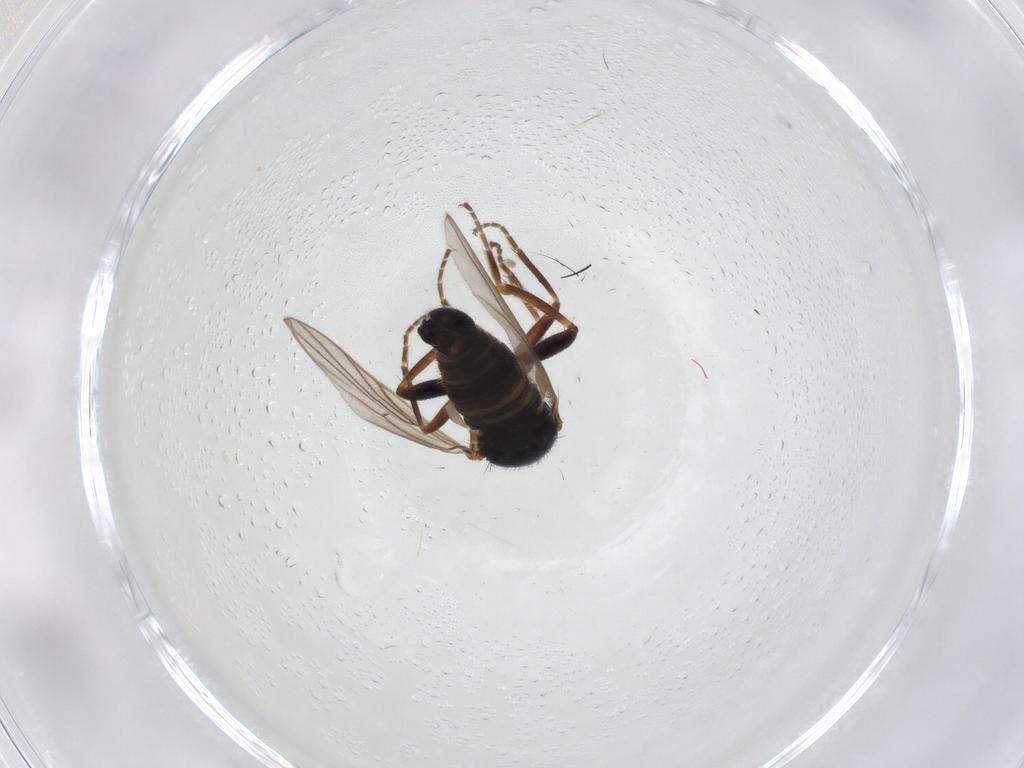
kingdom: Animalia
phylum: Arthropoda
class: Insecta
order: Diptera
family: Hybotidae
